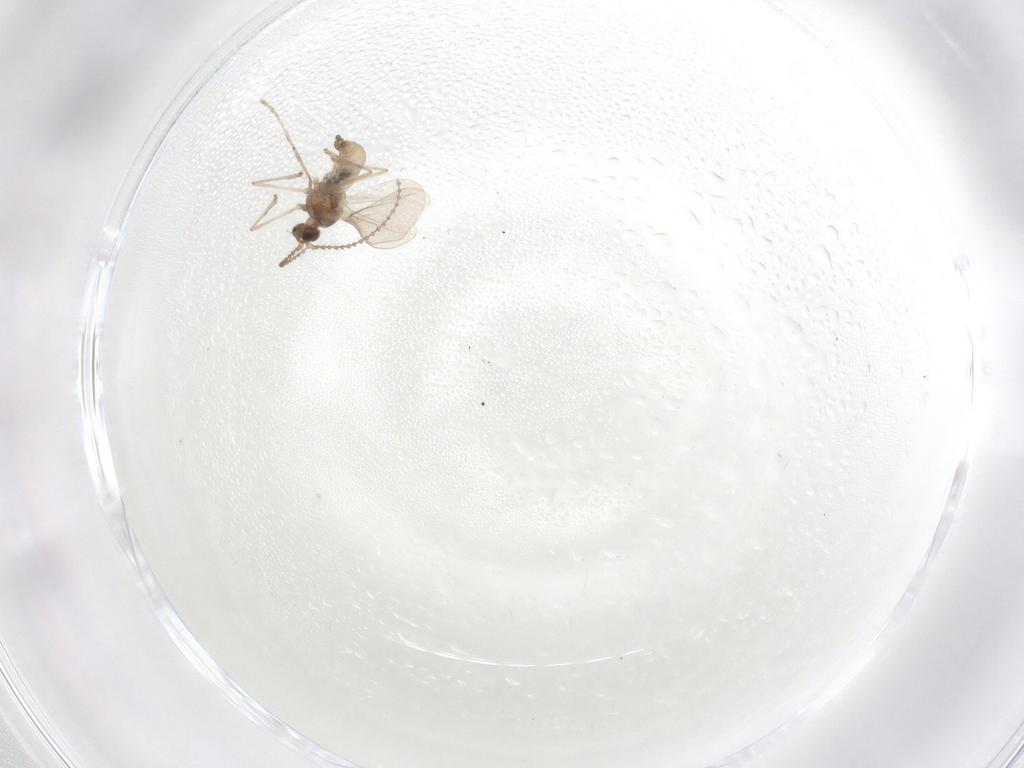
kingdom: Animalia
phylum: Arthropoda
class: Insecta
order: Diptera
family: Cecidomyiidae
